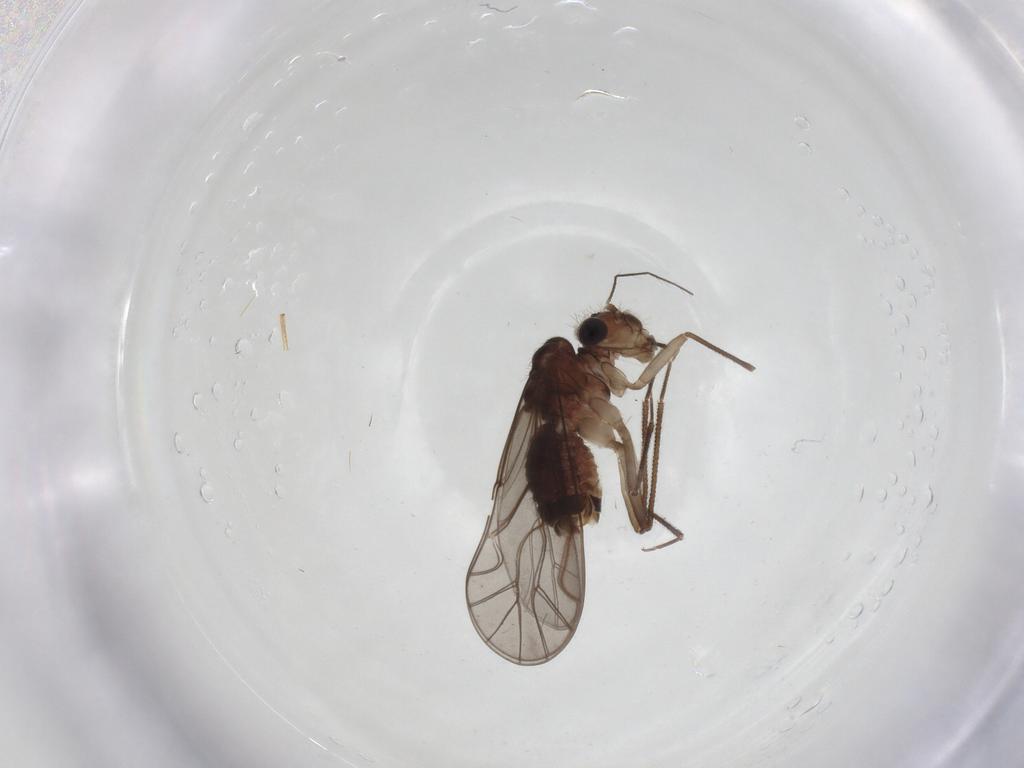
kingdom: Animalia
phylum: Arthropoda
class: Insecta
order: Psocodea
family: Lachesillidae
